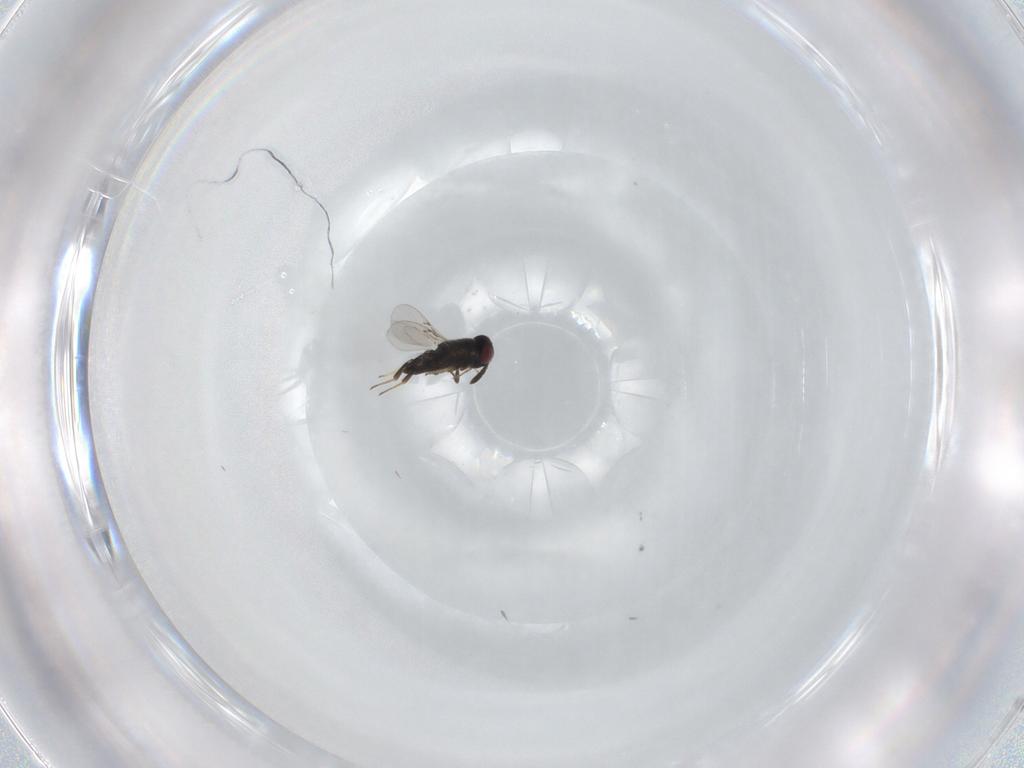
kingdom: Animalia
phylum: Arthropoda
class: Insecta
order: Hymenoptera
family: Encyrtidae
